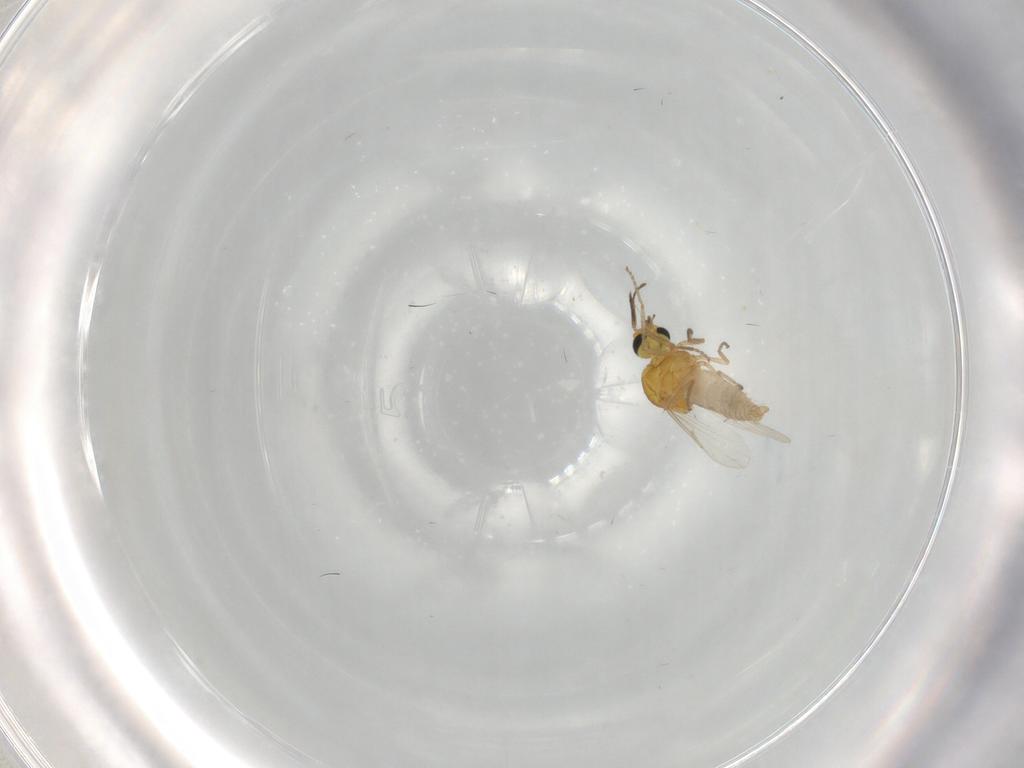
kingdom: Animalia
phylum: Arthropoda
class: Insecta
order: Diptera
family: Ceratopogonidae
